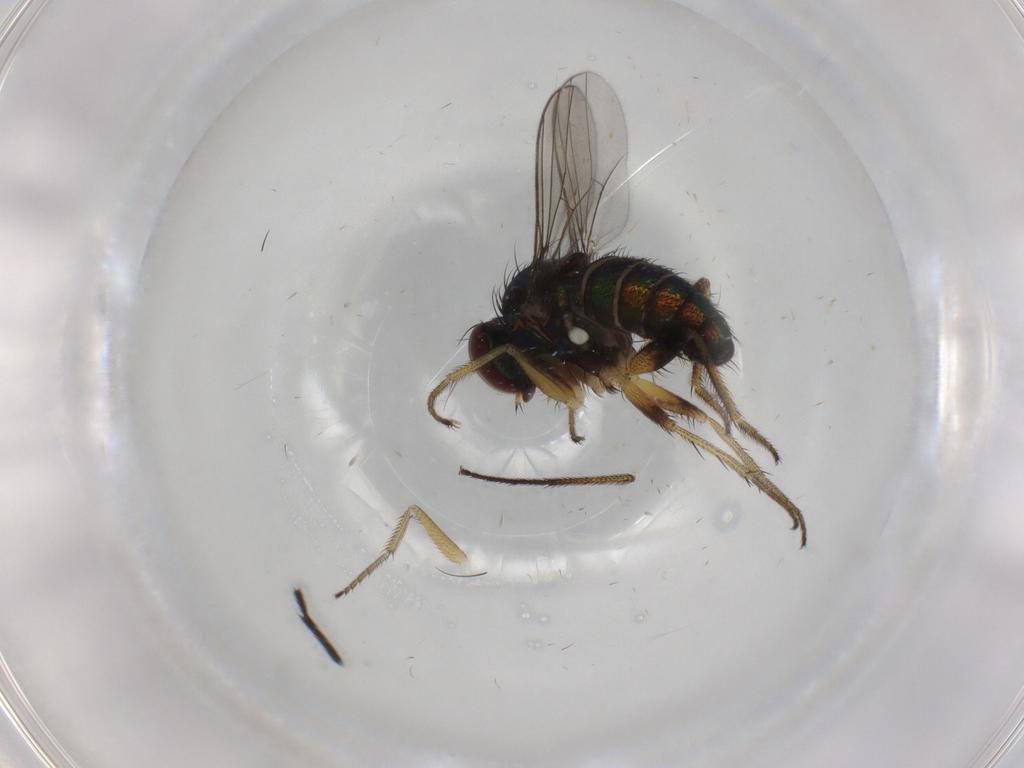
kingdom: Animalia
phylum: Arthropoda
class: Insecta
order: Diptera
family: Dolichopodidae
